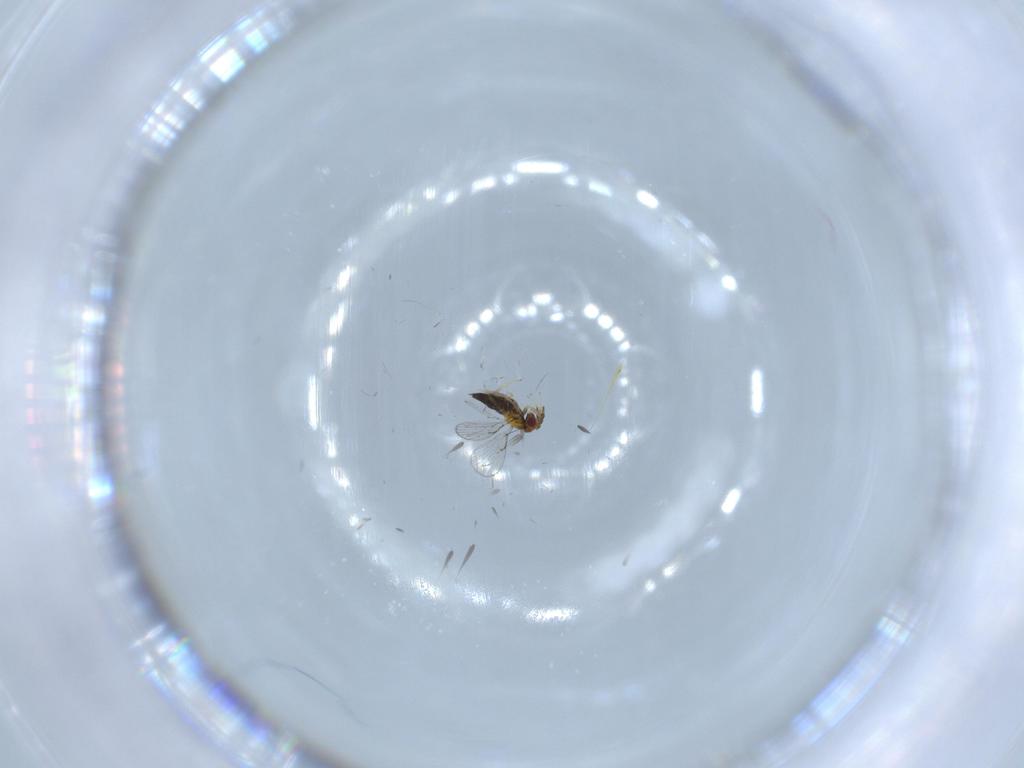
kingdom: Animalia
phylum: Arthropoda
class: Insecta
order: Hymenoptera
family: Trichogrammatidae
